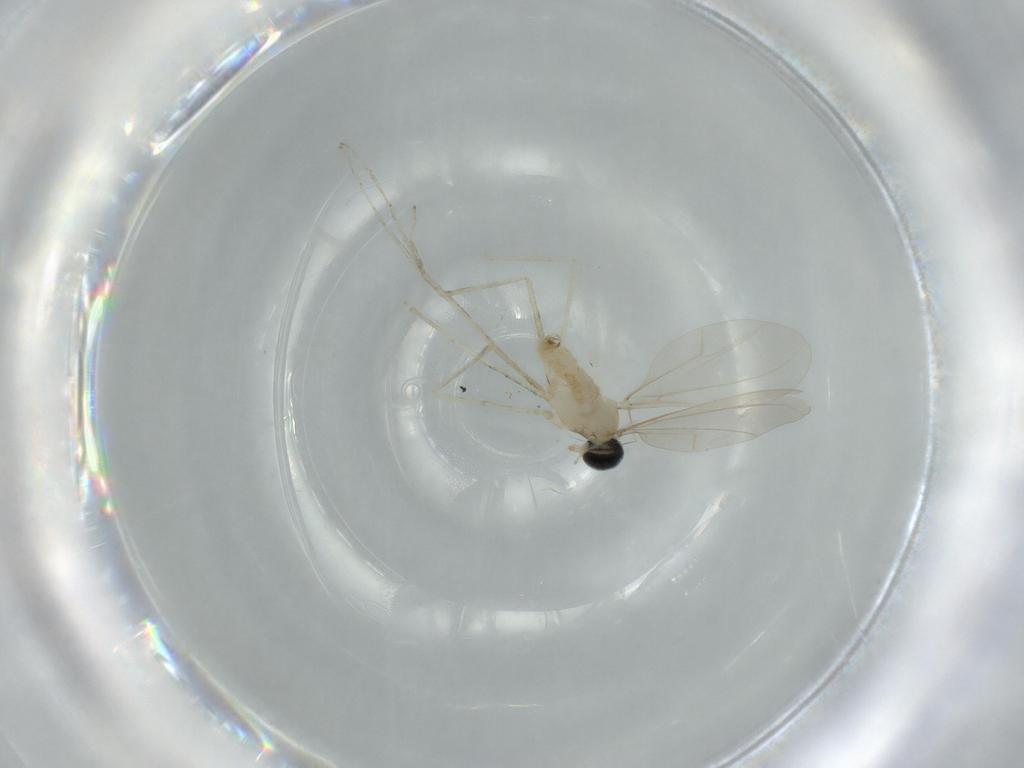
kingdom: Animalia
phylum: Arthropoda
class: Insecta
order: Diptera
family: Cecidomyiidae
